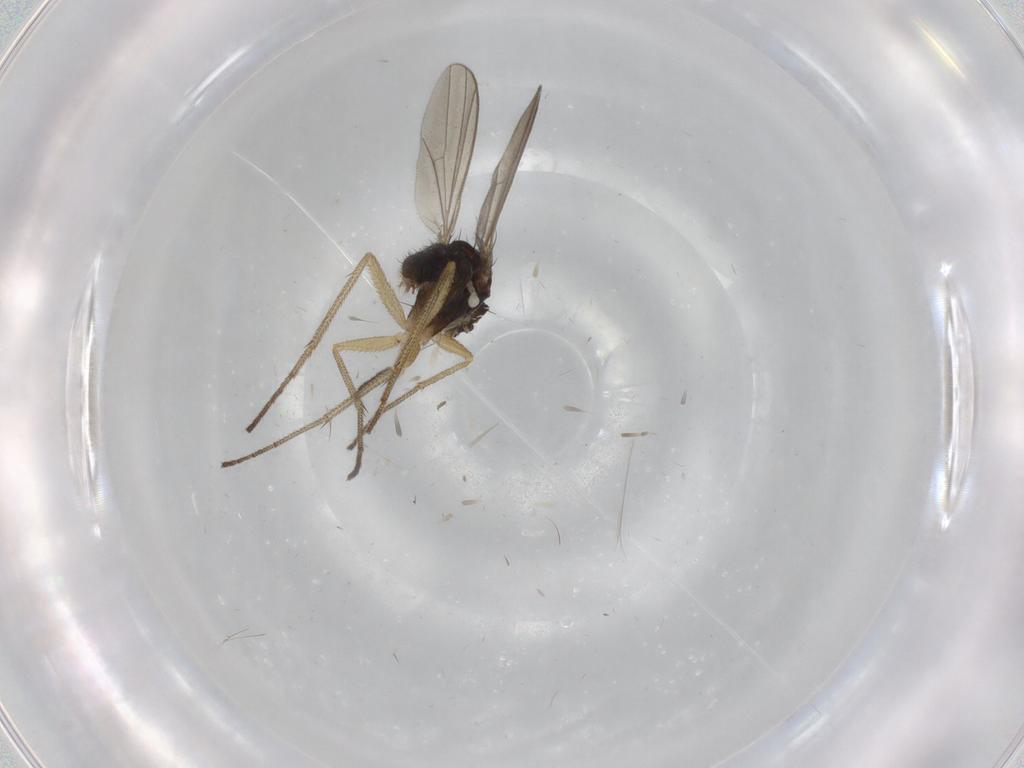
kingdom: Animalia
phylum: Arthropoda
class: Insecta
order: Diptera
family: Dolichopodidae
